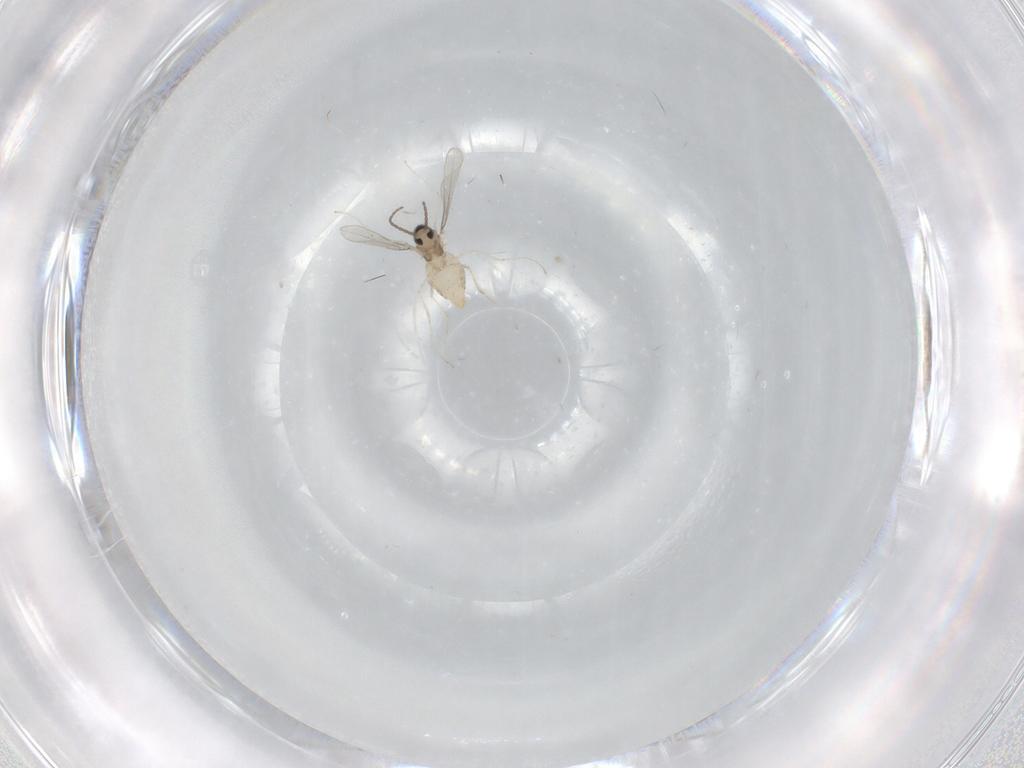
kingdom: Animalia
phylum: Arthropoda
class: Insecta
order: Diptera
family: Cecidomyiidae
